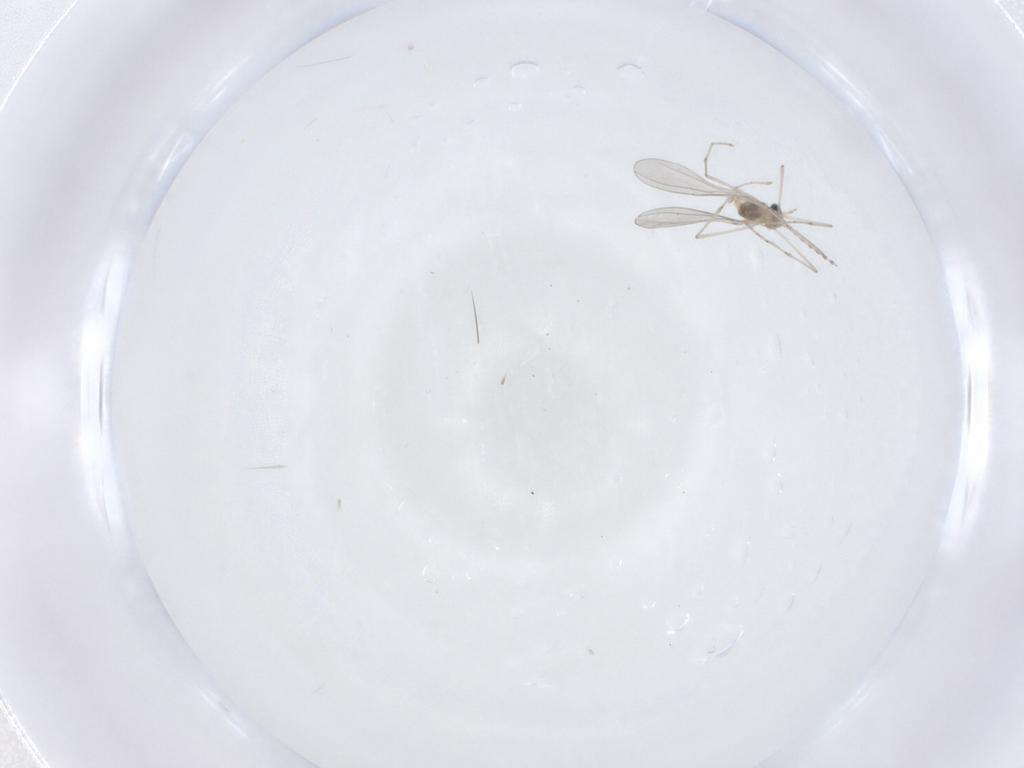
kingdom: Animalia
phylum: Arthropoda
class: Insecta
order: Diptera
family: Cecidomyiidae
